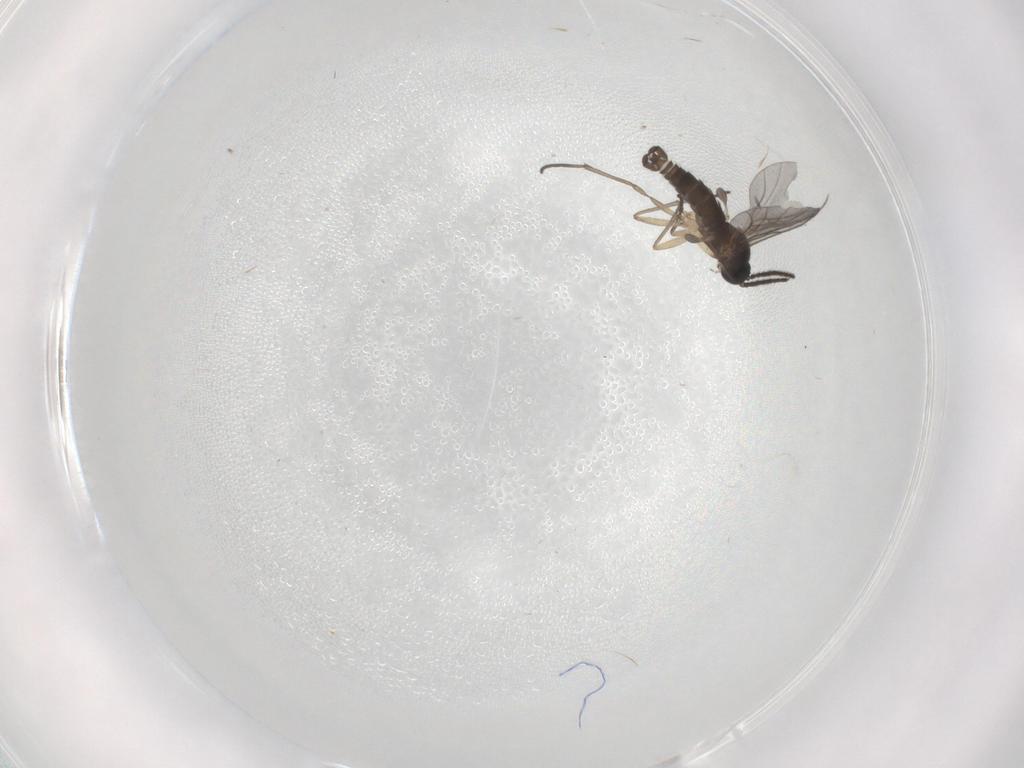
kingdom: Animalia
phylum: Arthropoda
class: Insecta
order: Diptera
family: Sciaridae
